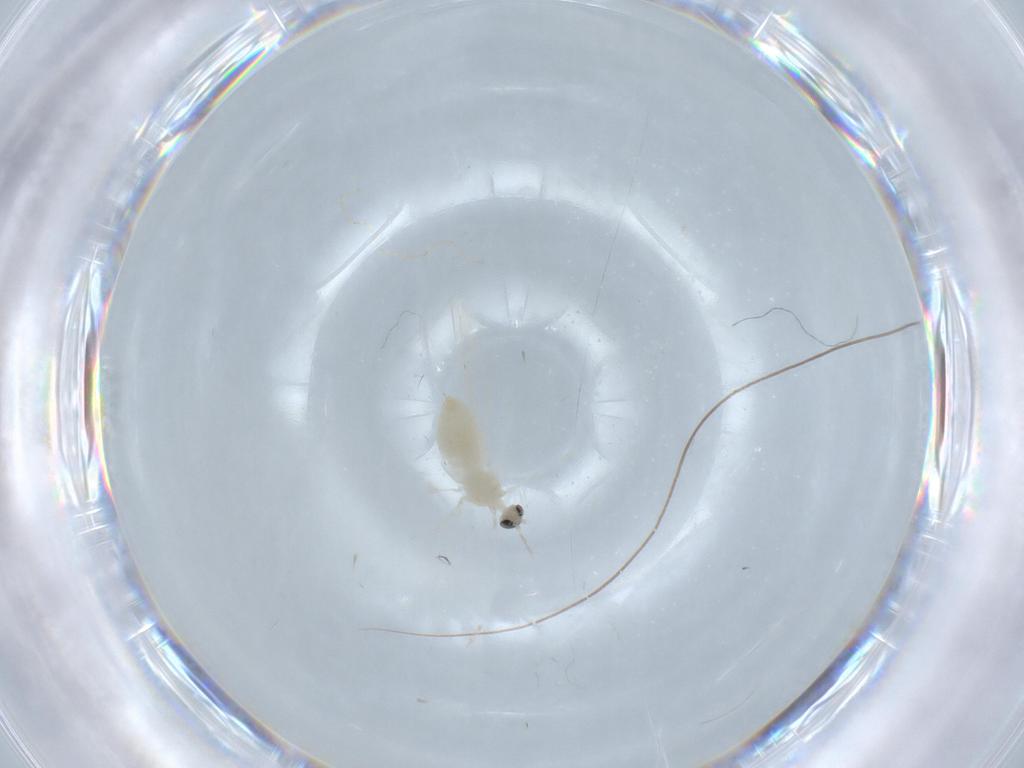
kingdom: Animalia
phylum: Arthropoda
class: Insecta
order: Diptera
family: Cecidomyiidae
